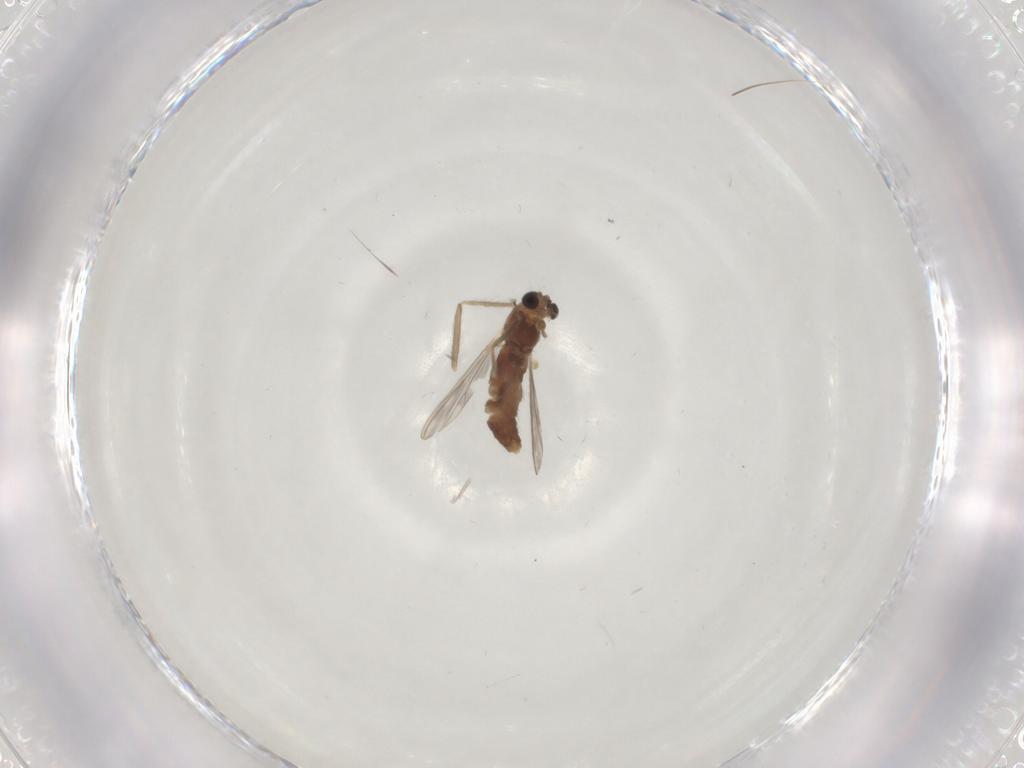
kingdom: Animalia
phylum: Arthropoda
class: Insecta
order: Diptera
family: Chironomidae
